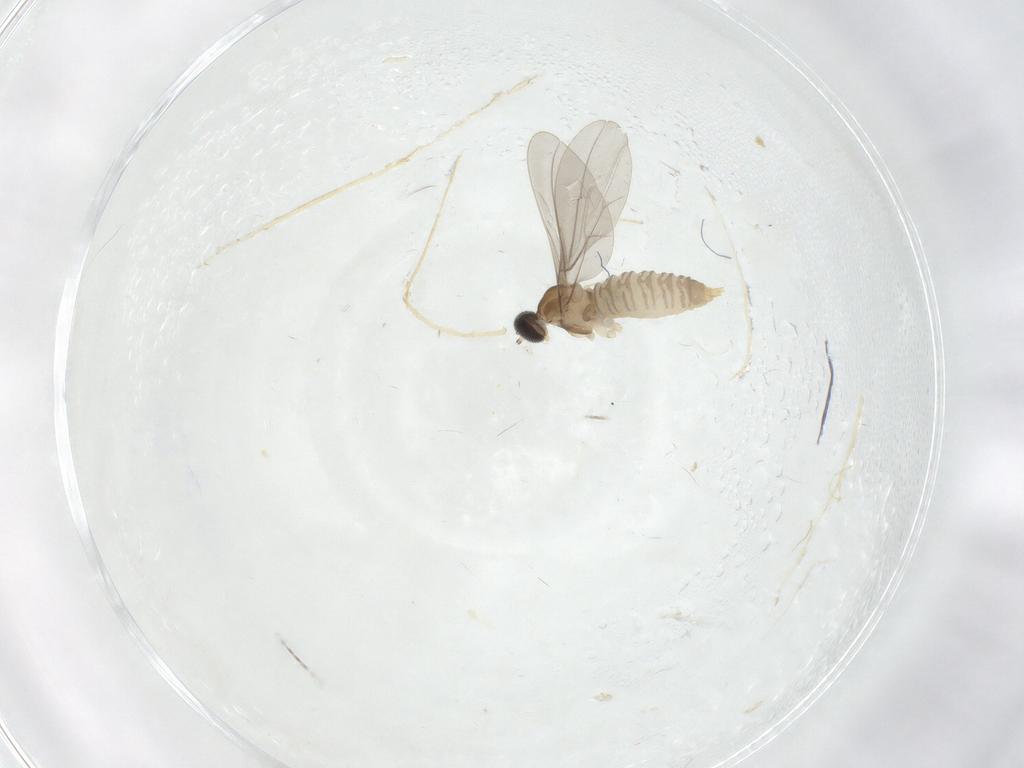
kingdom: Animalia
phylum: Arthropoda
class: Insecta
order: Diptera
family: Cecidomyiidae
